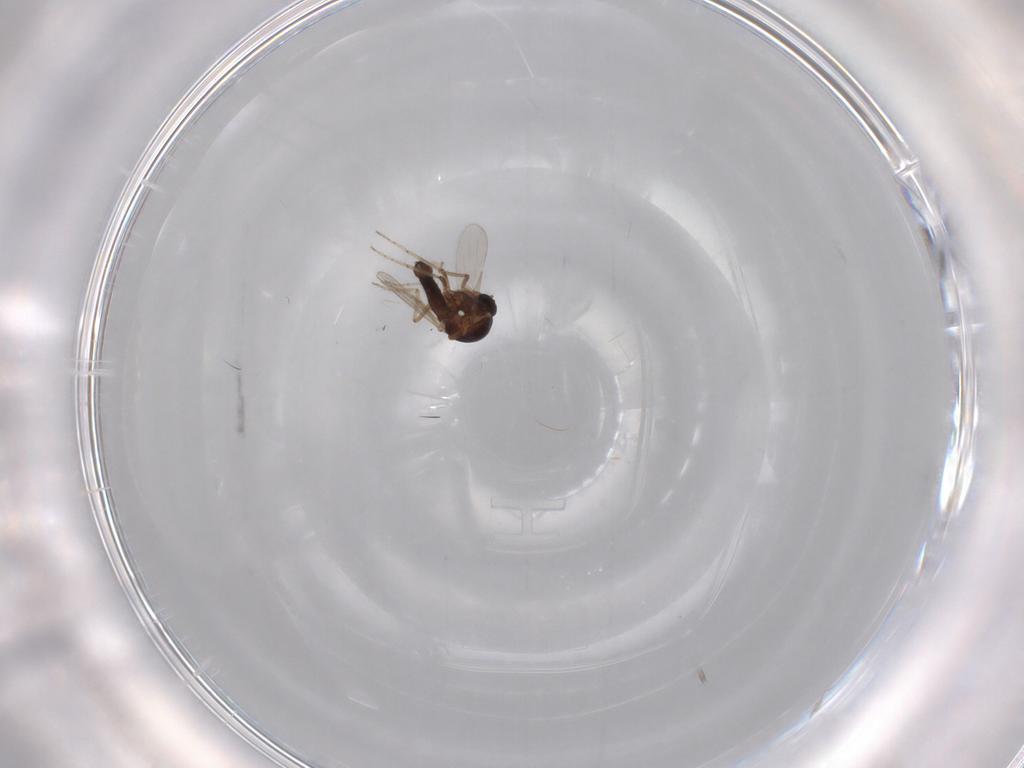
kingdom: Animalia
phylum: Arthropoda
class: Insecta
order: Diptera
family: Ceratopogonidae
